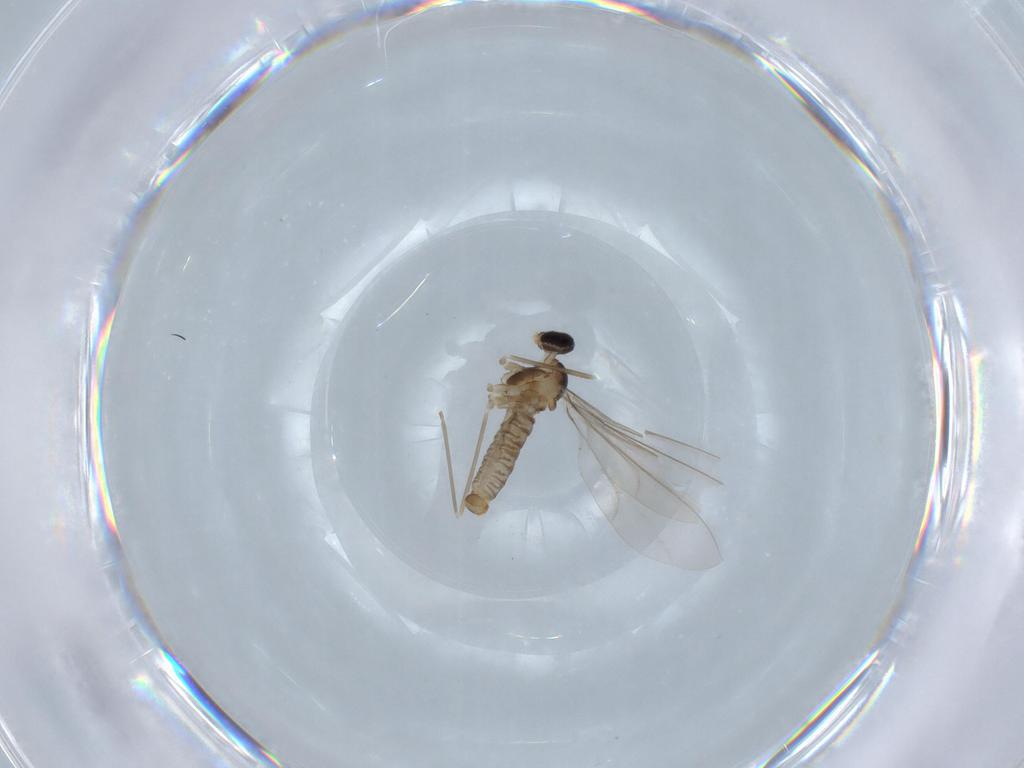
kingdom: Animalia
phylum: Arthropoda
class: Insecta
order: Diptera
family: Cecidomyiidae
